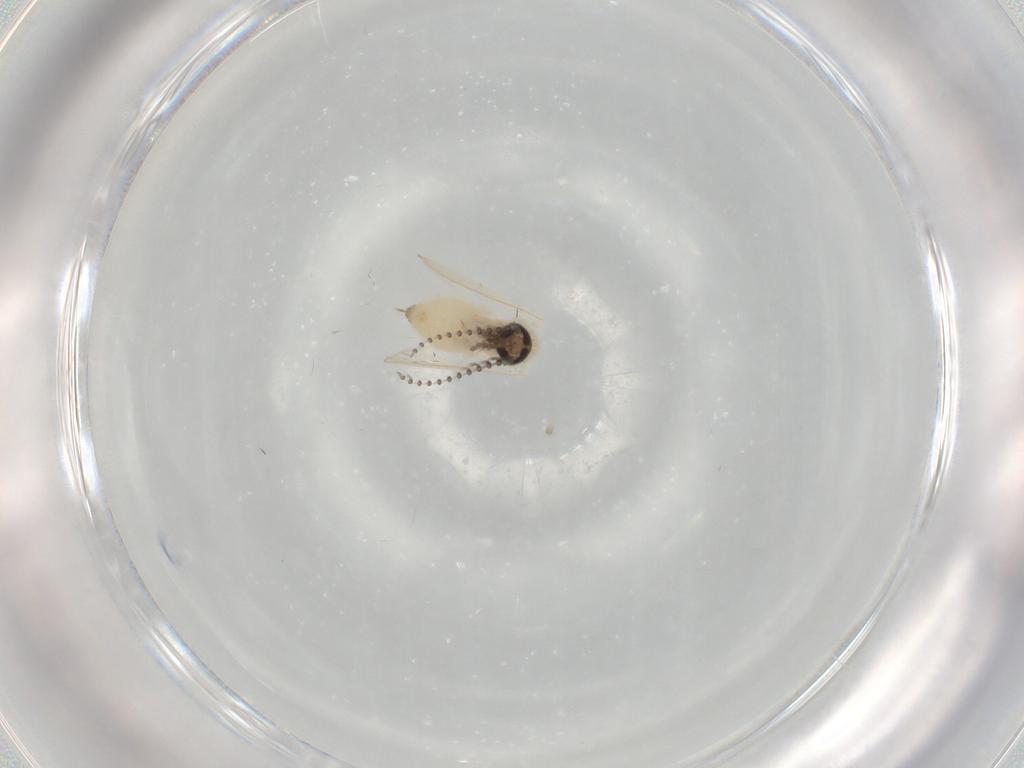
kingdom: Animalia
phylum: Arthropoda
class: Insecta
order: Diptera
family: Psychodidae
